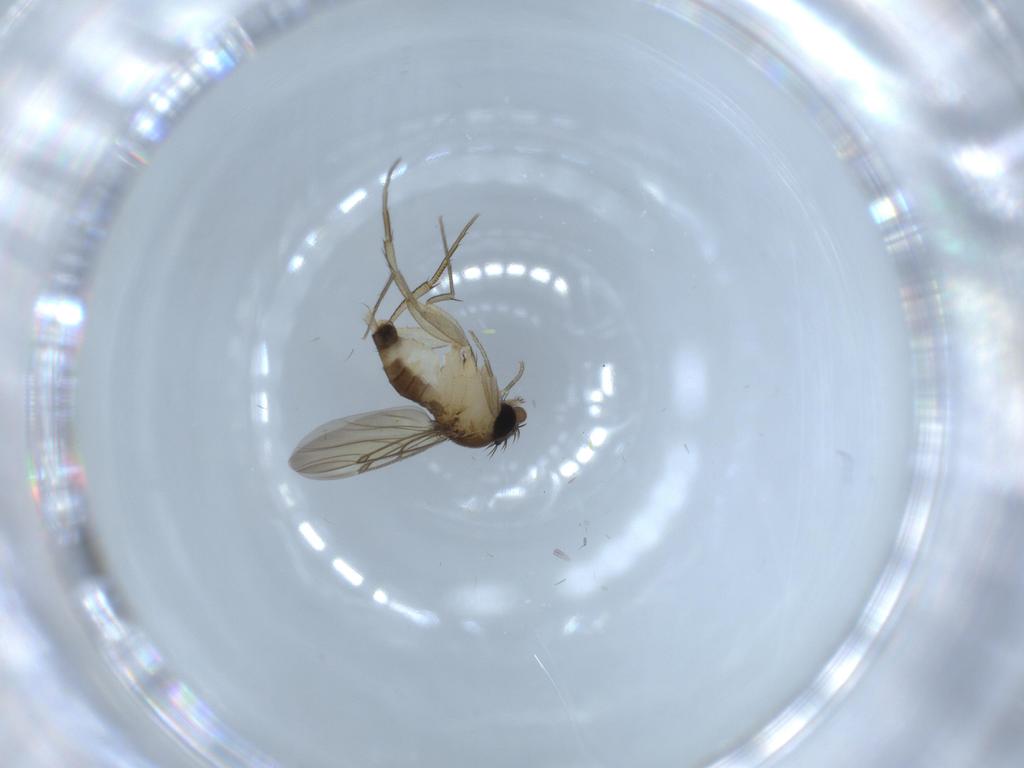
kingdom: Animalia
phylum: Arthropoda
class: Insecta
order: Diptera
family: Phoridae
